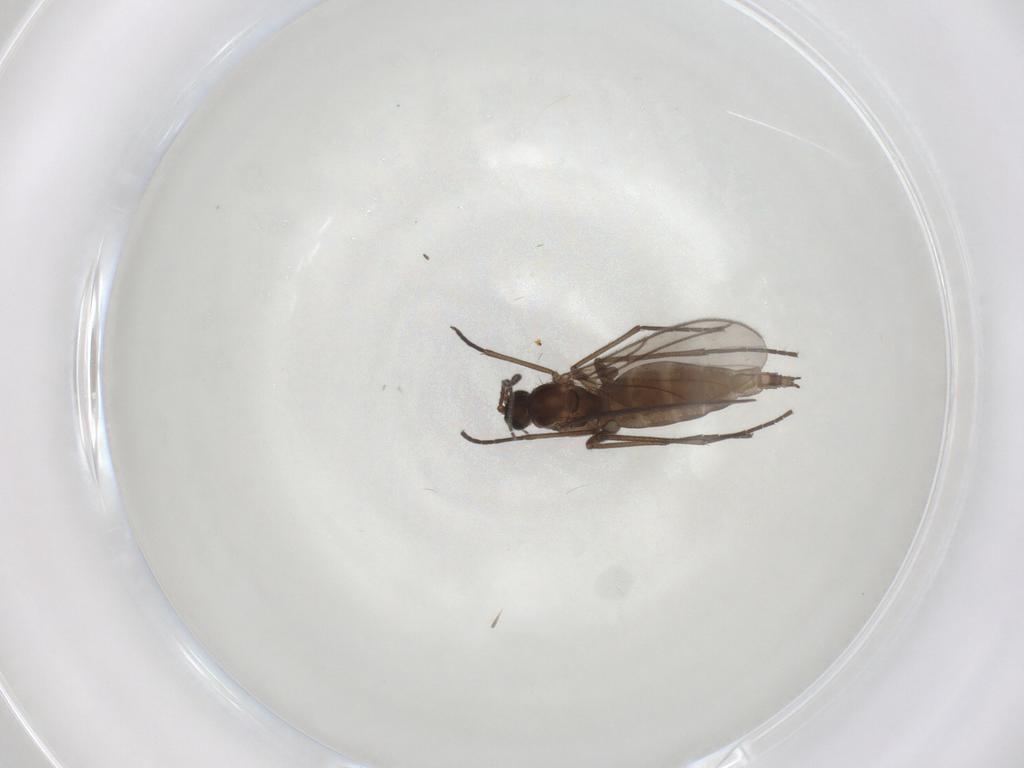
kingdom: Animalia
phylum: Arthropoda
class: Insecta
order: Diptera
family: Sciaridae
